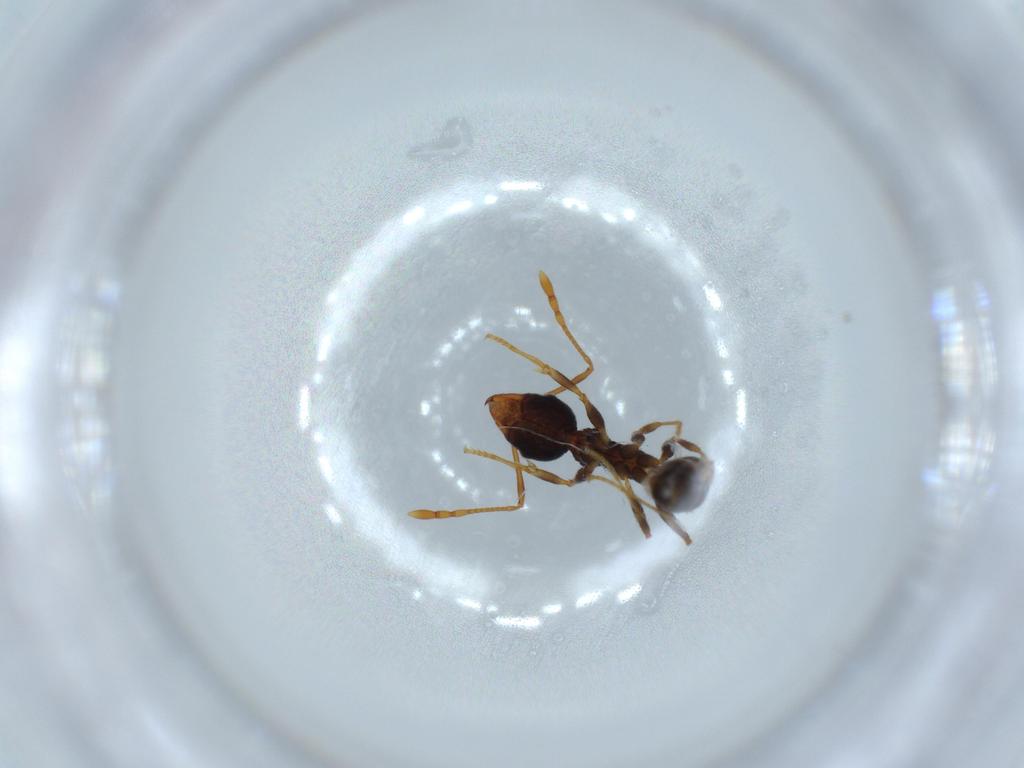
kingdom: Animalia
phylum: Arthropoda
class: Insecta
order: Hymenoptera
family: Formicidae
